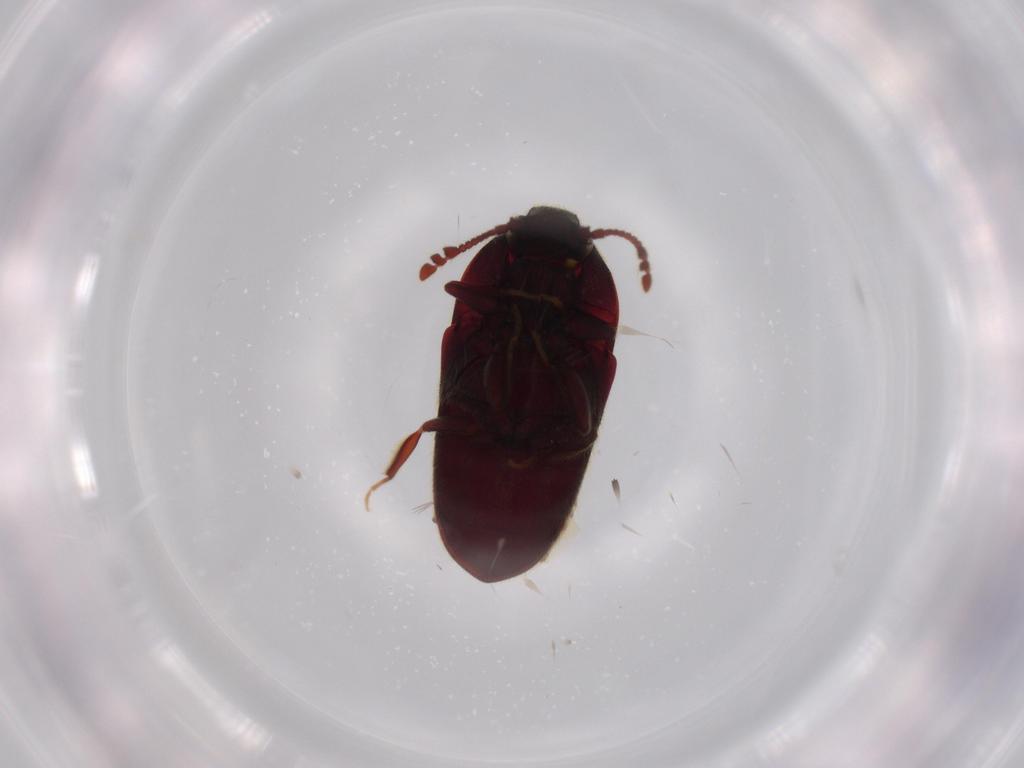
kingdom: Animalia
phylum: Arthropoda
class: Insecta
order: Coleoptera
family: Throscidae
